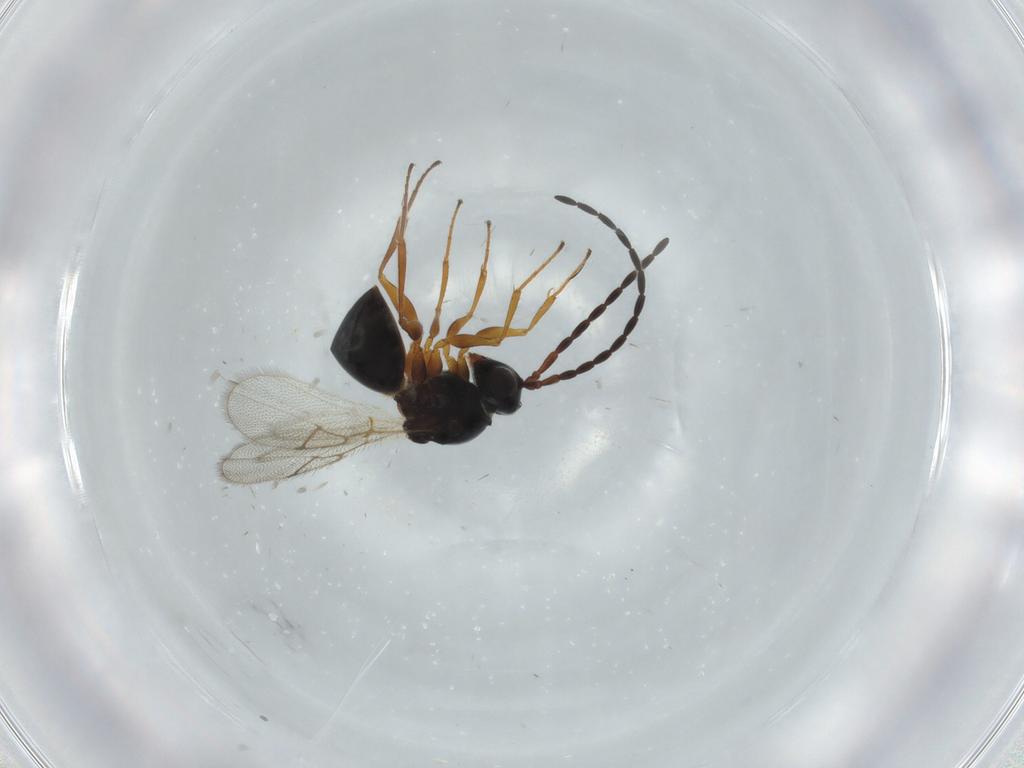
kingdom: Animalia
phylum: Arthropoda
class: Insecta
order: Hymenoptera
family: Figitidae
